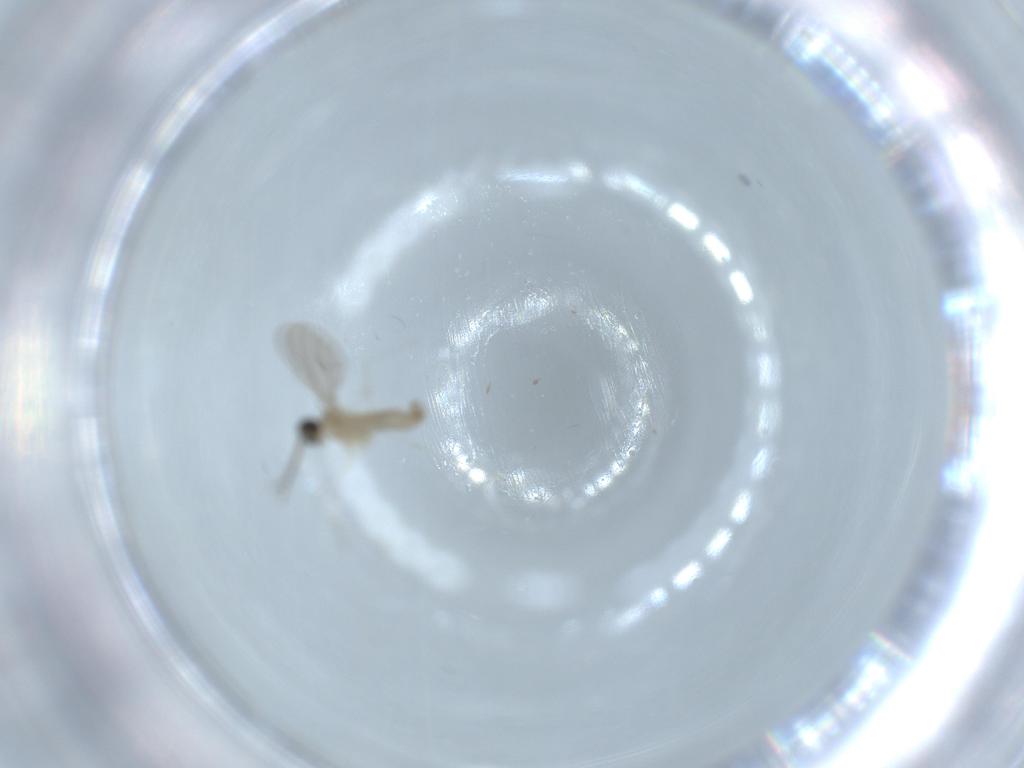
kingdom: Animalia
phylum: Arthropoda
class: Insecta
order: Diptera
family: Cecidomyiidae
